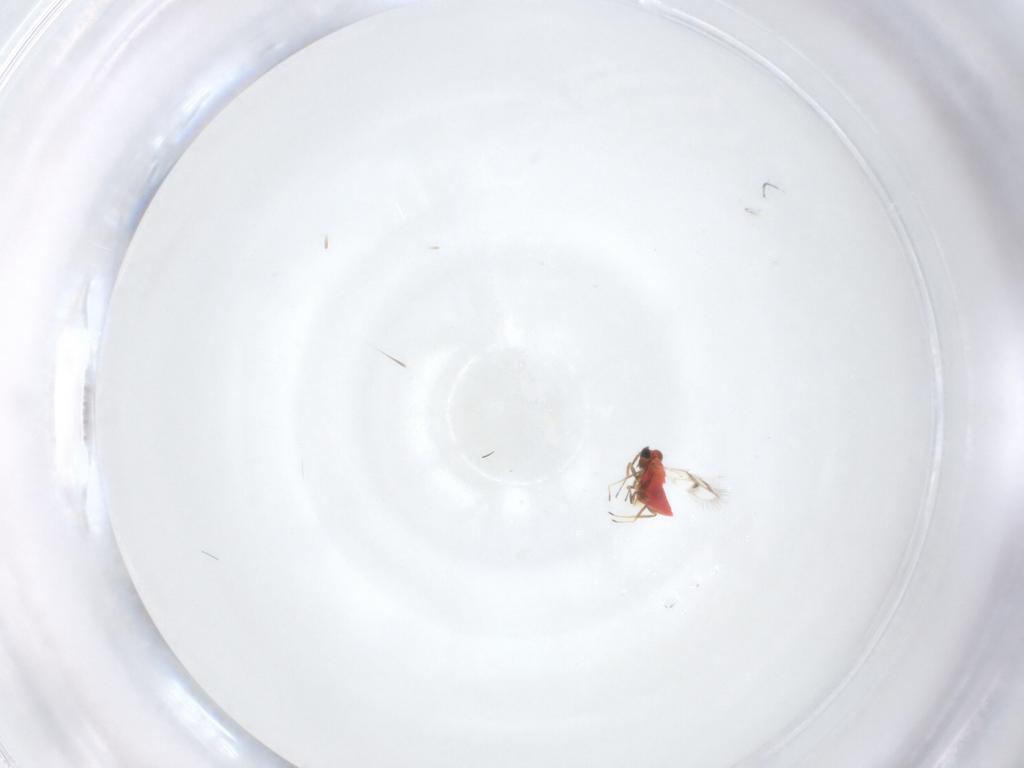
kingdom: Animalia
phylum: Arthropoda
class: Insecta
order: Hymenoptera
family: Trichogrammatidae
